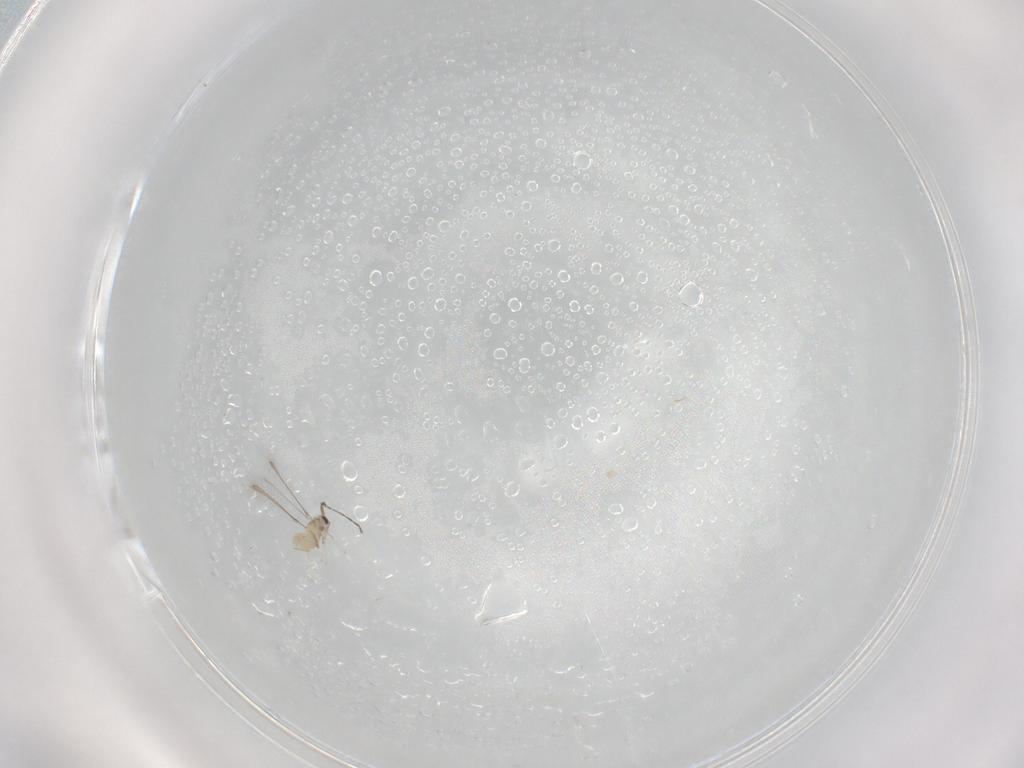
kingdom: Animalia
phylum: Arthropoda
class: Insecta
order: Hymenoptera
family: Mymaridae
